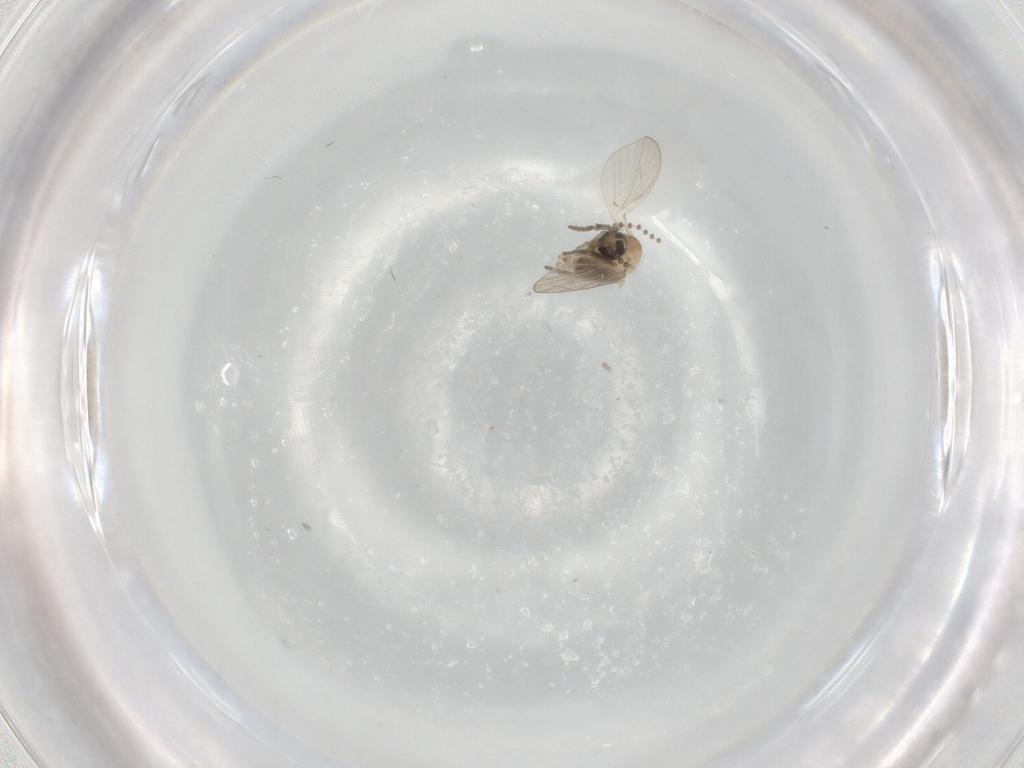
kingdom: Animalia
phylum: Arthropoda
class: Insecta
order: Diptera
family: Psychodidae
